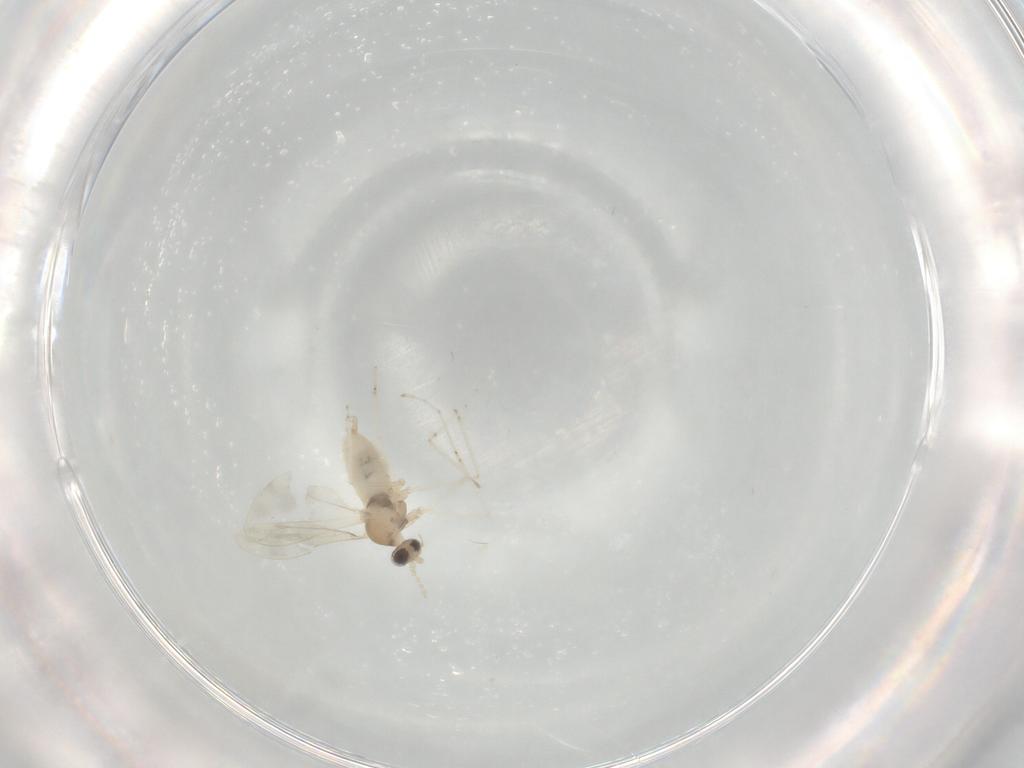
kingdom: Animalia
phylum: Arthropoda
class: Insecta
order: Diptera
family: Cecidomyiidae
